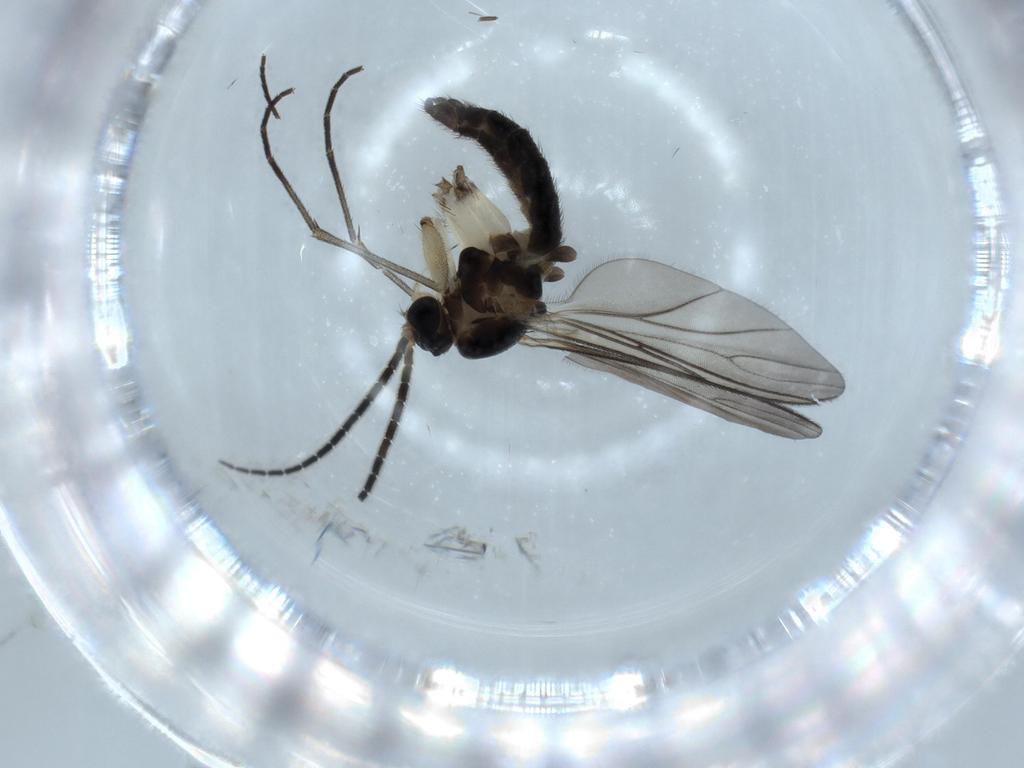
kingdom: Animalia
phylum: Arthropoda
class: Insecta
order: Diptera
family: Sciaridae
